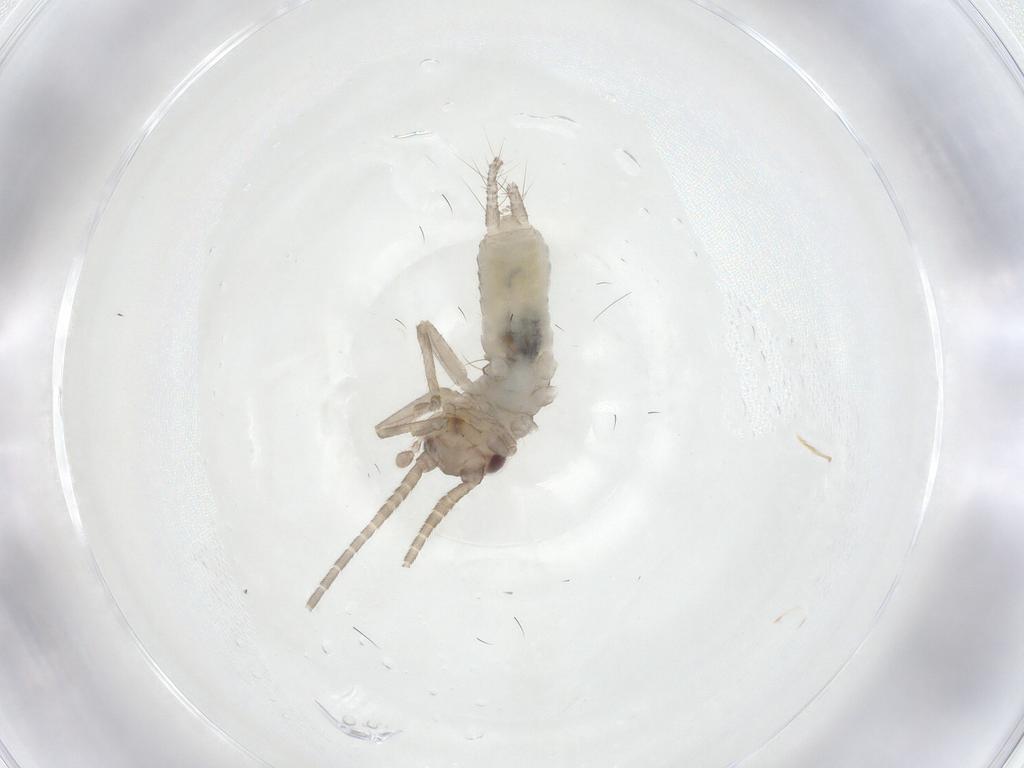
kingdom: Animalia
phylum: Arthropoda
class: Insecta
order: Orthoptera
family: Gryllidae
